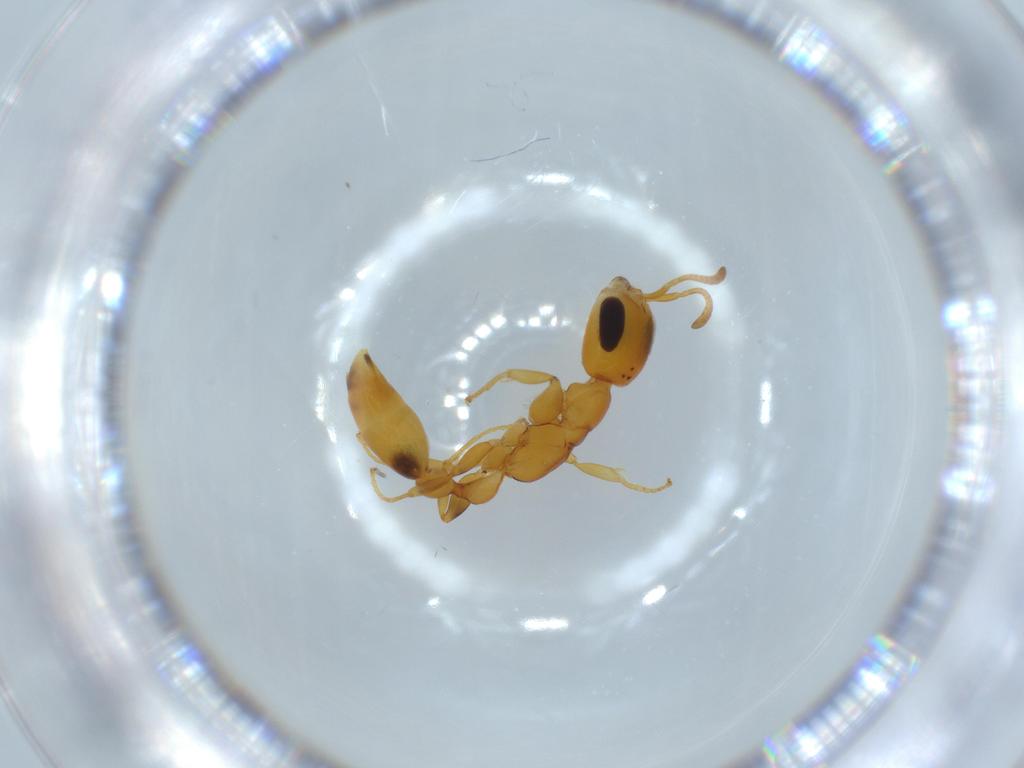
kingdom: Animalia
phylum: Arthropoda
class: Insecta
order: Hymenoptera
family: Formicidae
